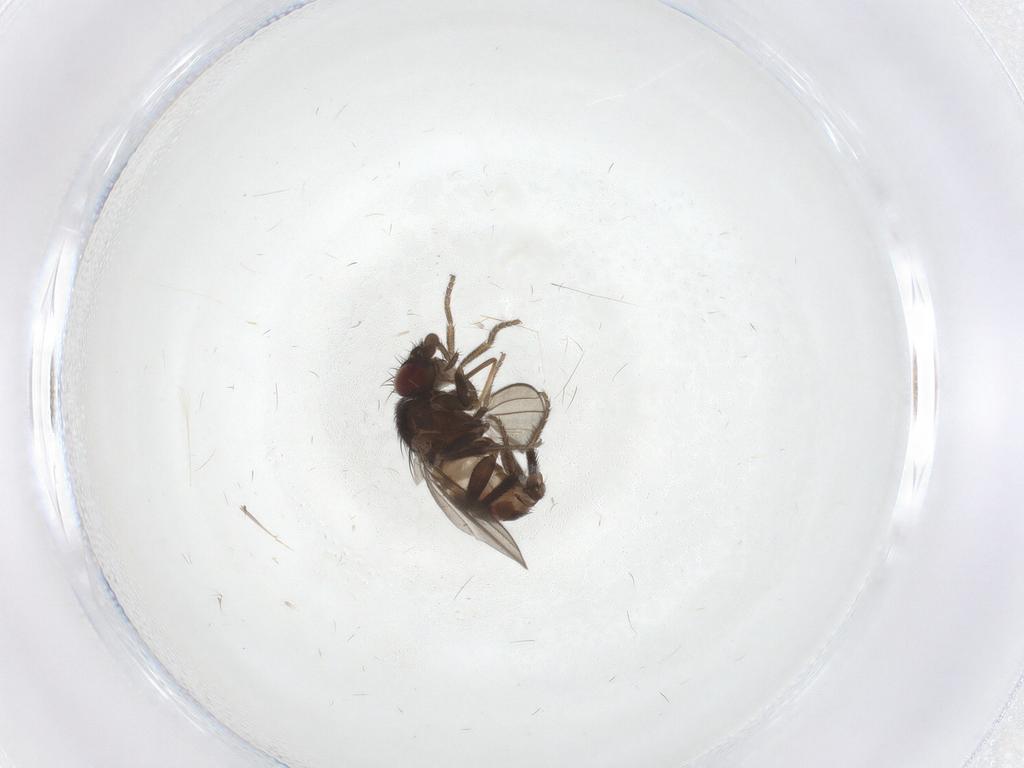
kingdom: Animalia
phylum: Arthropoda
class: Insecta
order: Diptera
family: Milichiidae
